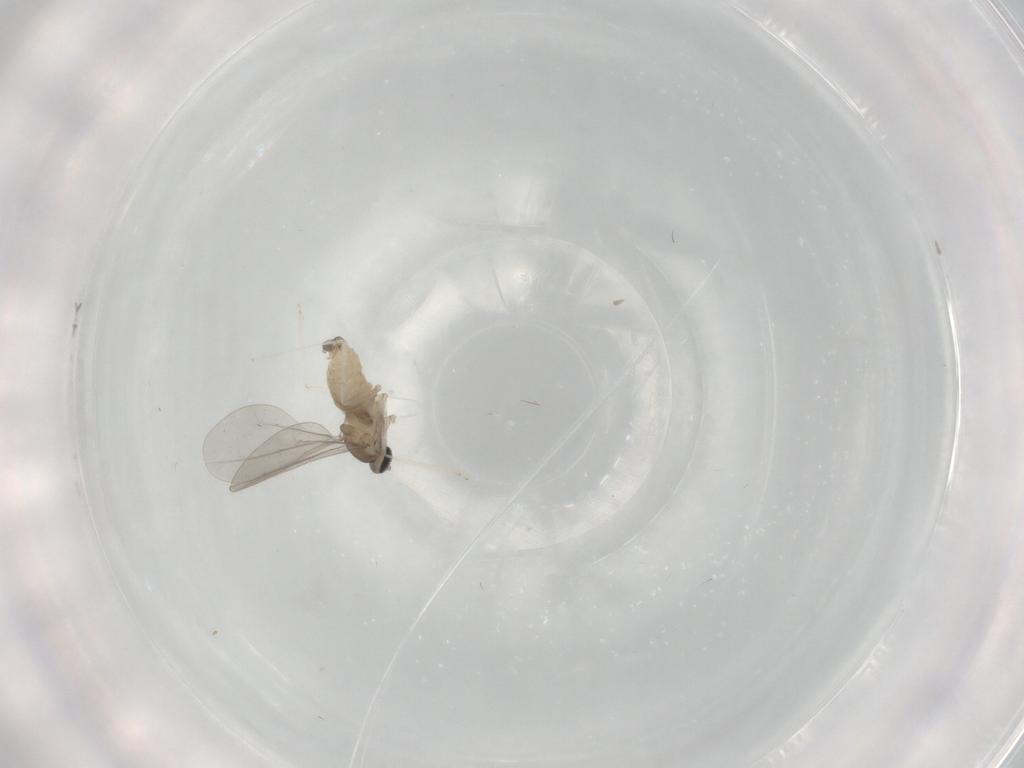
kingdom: Animalia
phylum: Arthropoda
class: Insecta
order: Diptera
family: Cecidomyiidae
